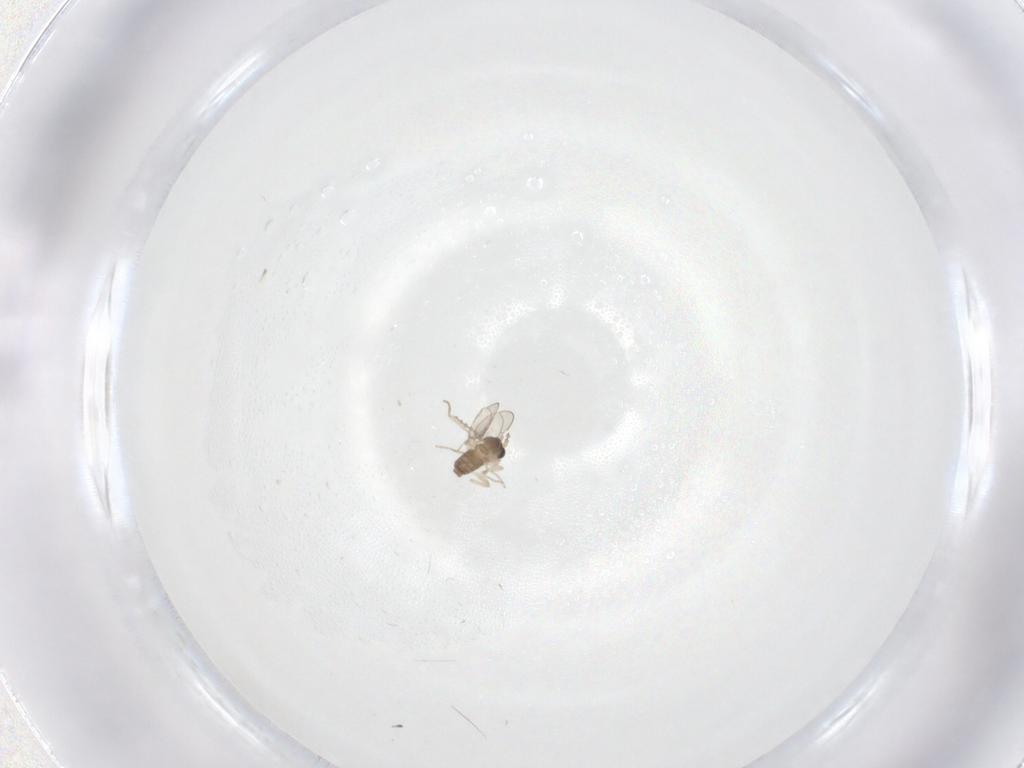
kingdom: Animalia
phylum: Arthropoda
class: Insecta
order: Diptera
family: Cecidomyiidae
